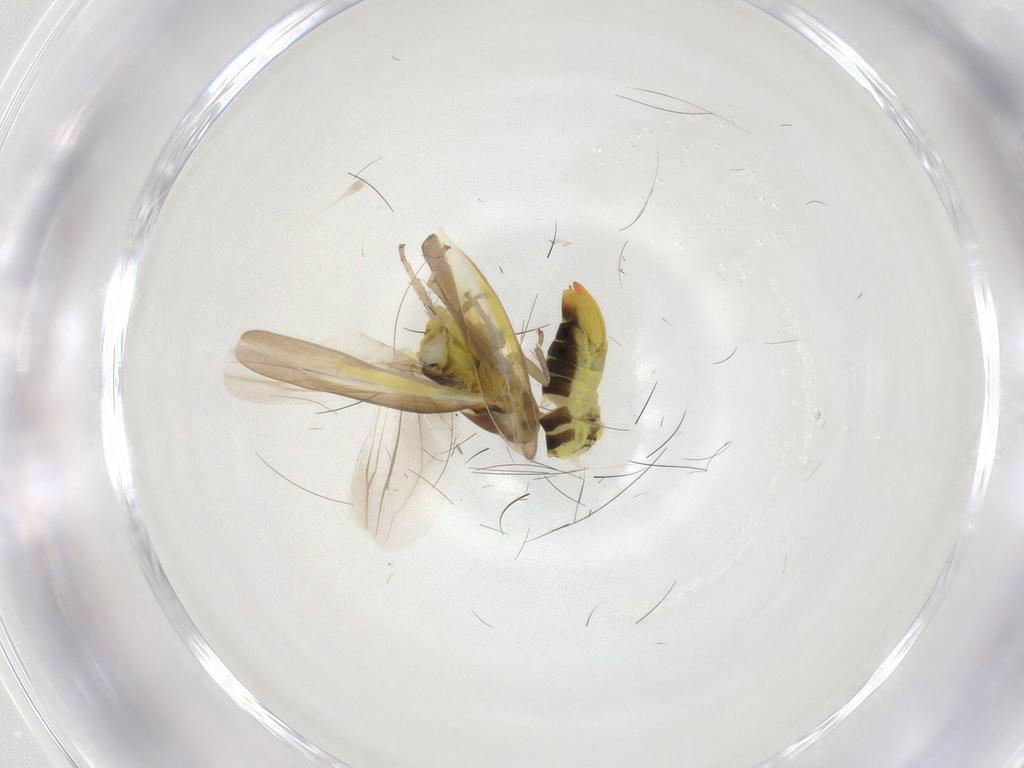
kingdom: Animalia
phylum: Arthropoda
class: Insecta
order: Hemiptera
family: Cicadellidae
